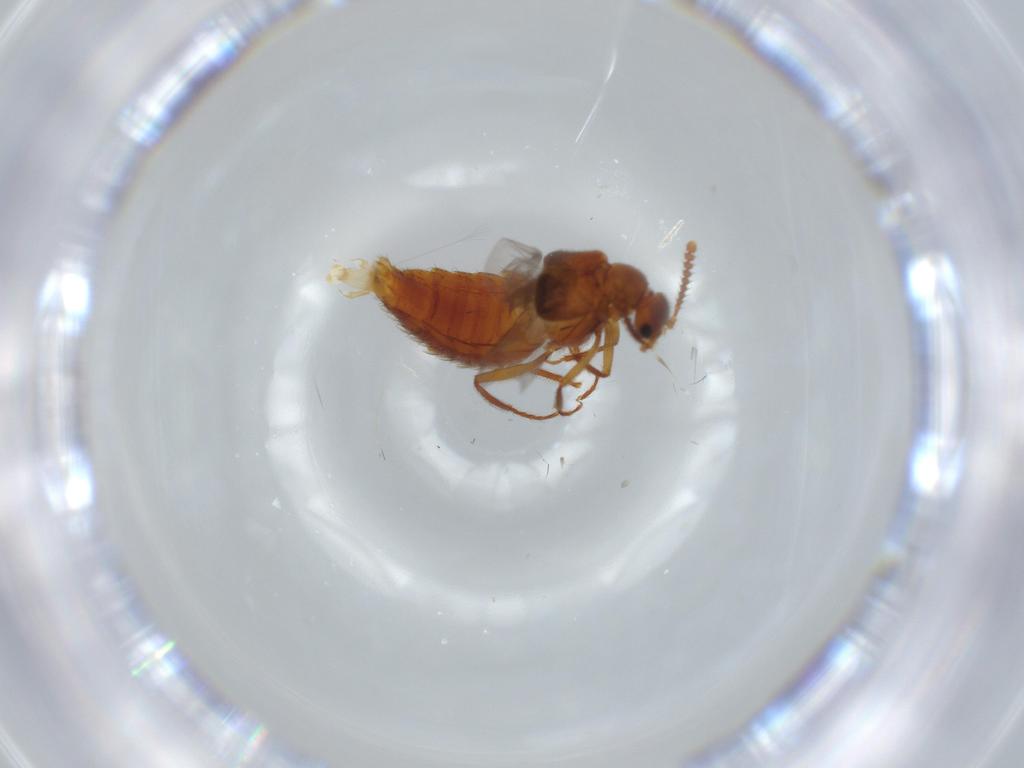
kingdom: Animalia
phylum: Arthropoda
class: Insecta
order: Coleoptera
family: Staphylinidae
